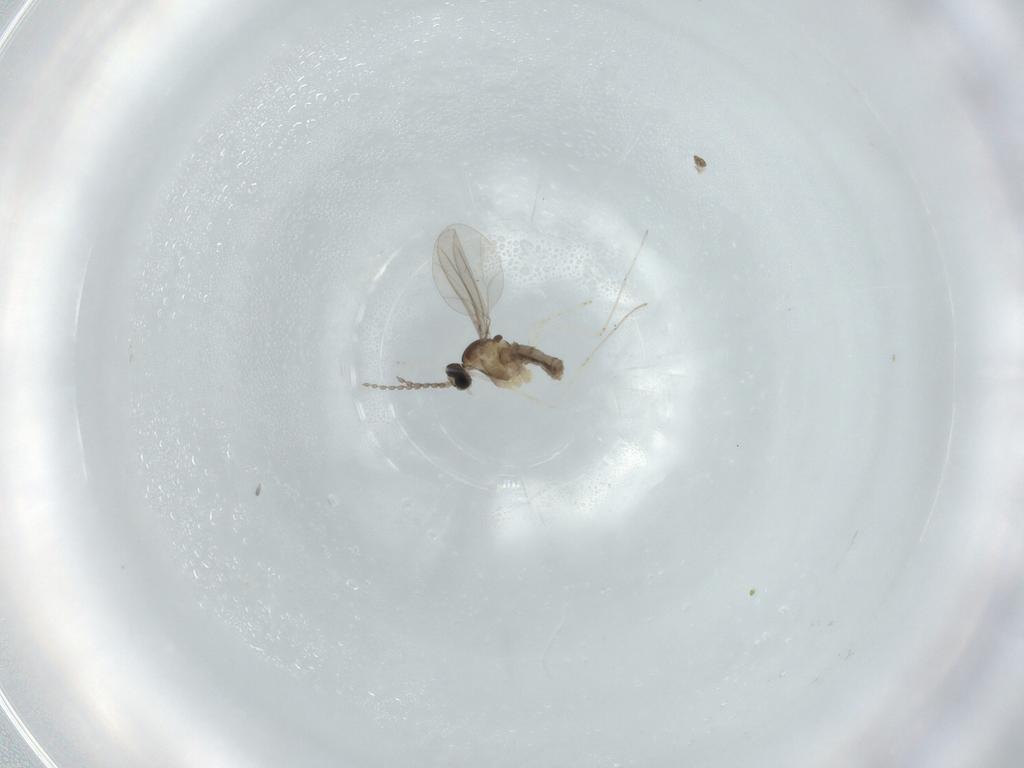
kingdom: Animalia
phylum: Arthropoda
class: Insecta
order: Diptera
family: Cecidomyiidae
